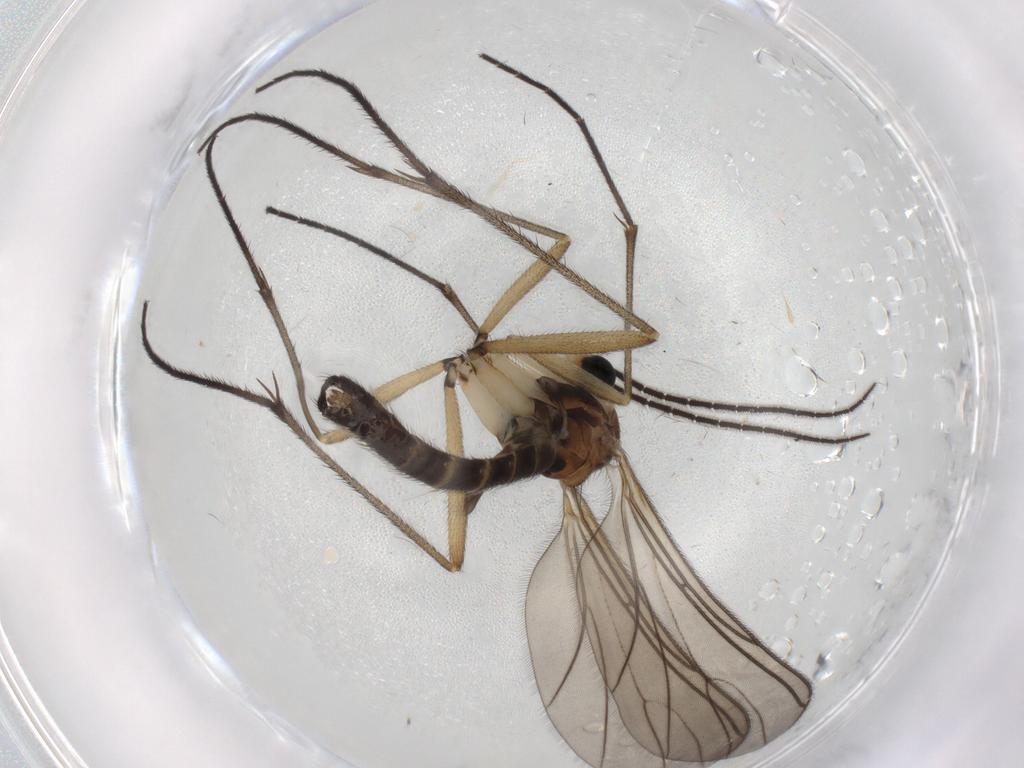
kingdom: Animalia
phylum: Arthropoda
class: Insecta
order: Diptera
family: Sciaridae
